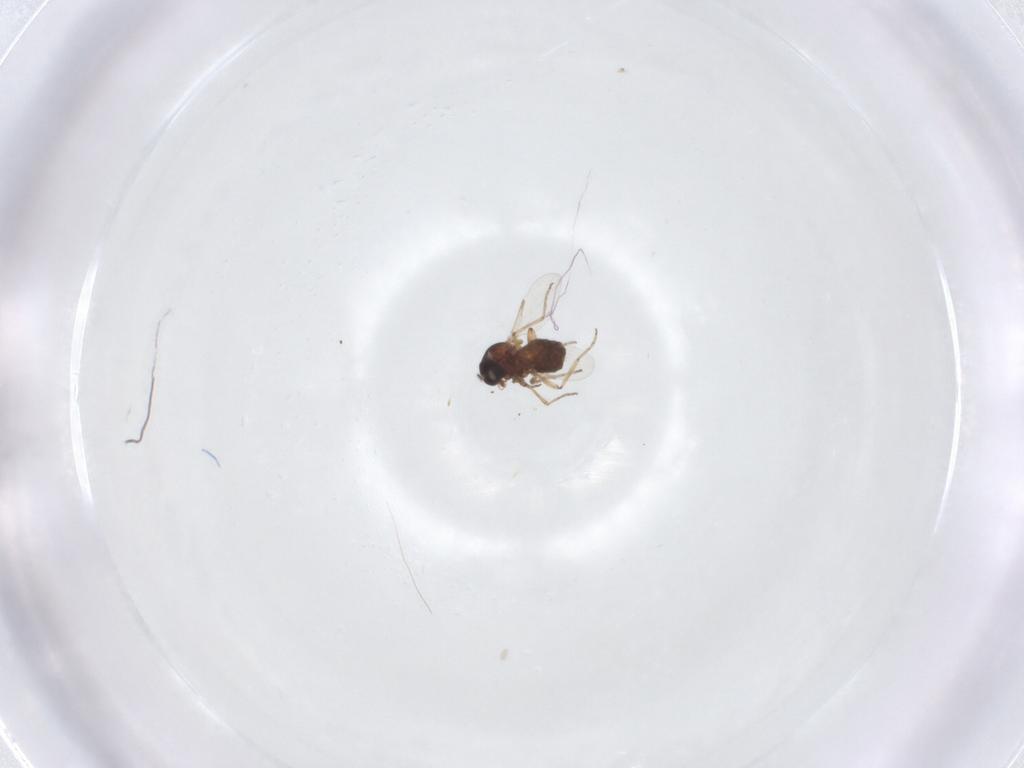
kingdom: Animalia
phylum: Arthropoda
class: Insecta
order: Diptera
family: Ceratopogonidae
